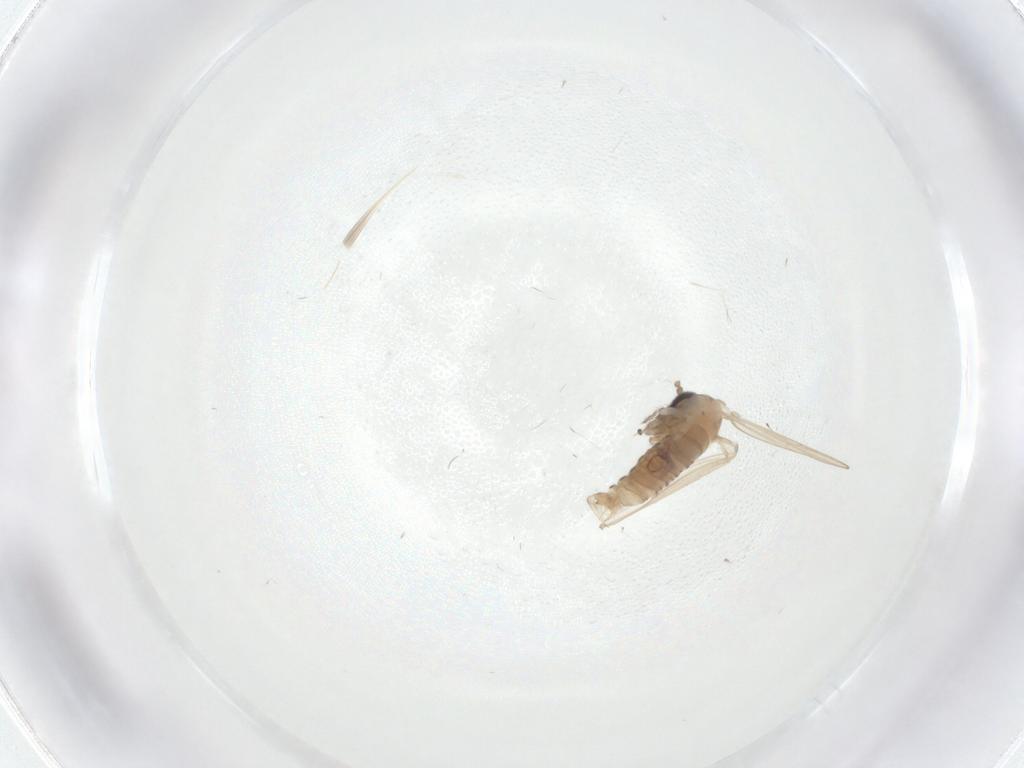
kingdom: Animalia
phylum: Arthropoda
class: Insecta
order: Diptera
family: Cecidomyiidae
